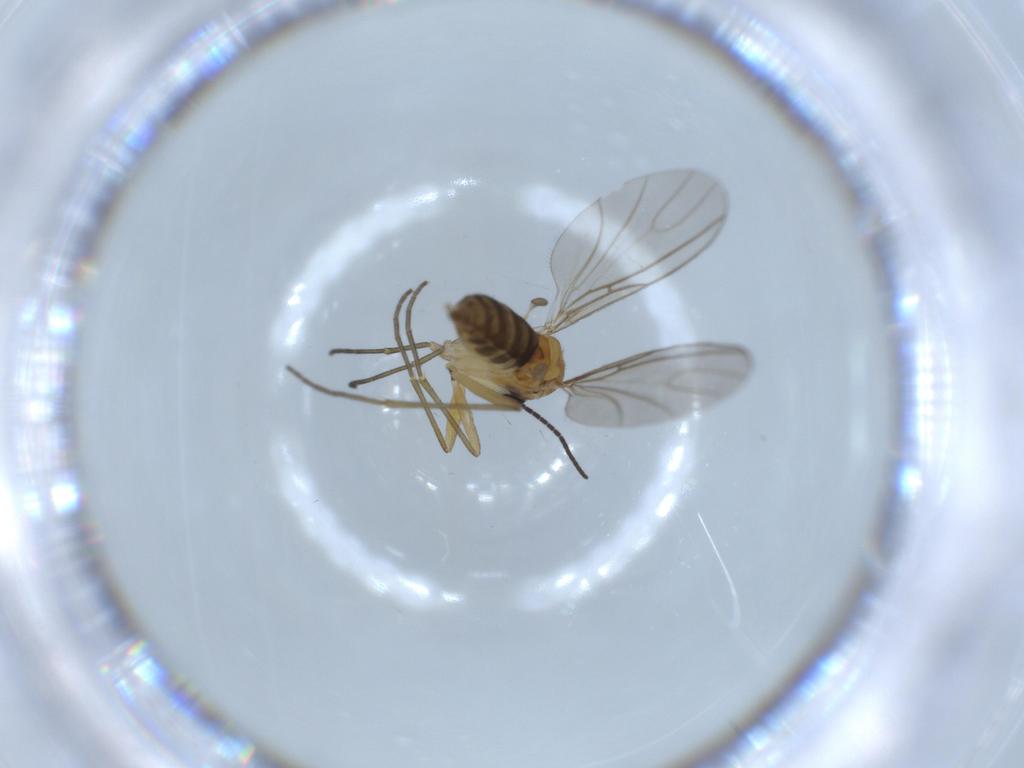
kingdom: Animalia
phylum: Arthropoda
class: Insecta
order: Diptera
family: Sciaridae
